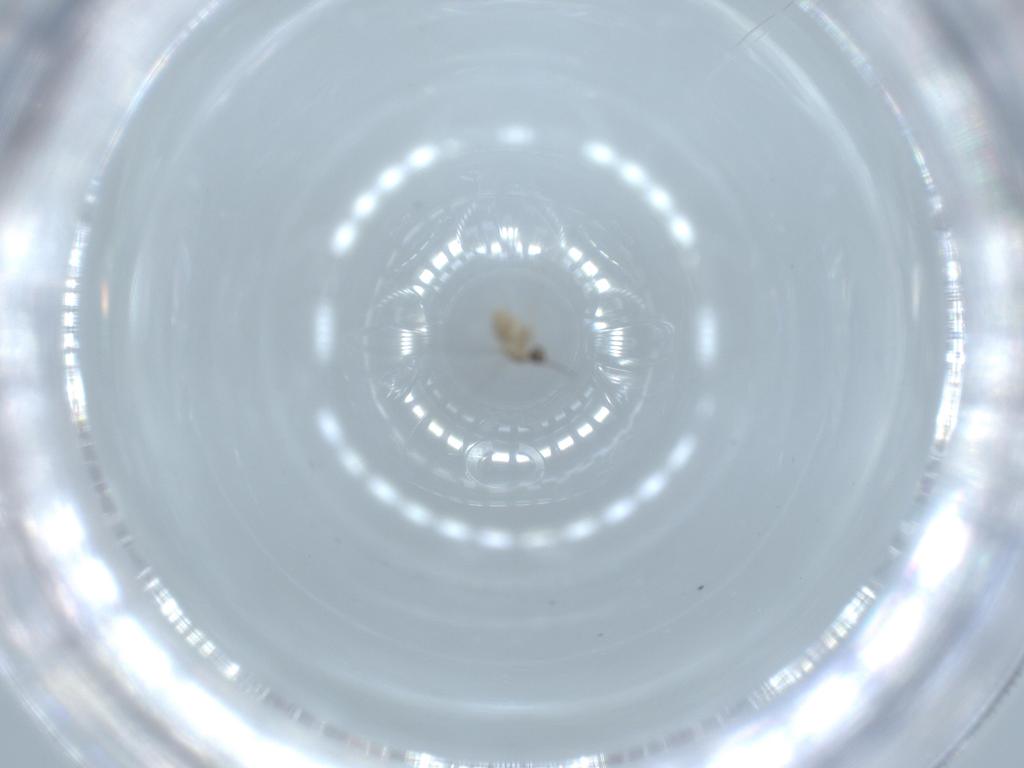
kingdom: Animalia
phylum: Arthropoda
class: Insecta
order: Diptera
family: Cecidomyiidae
